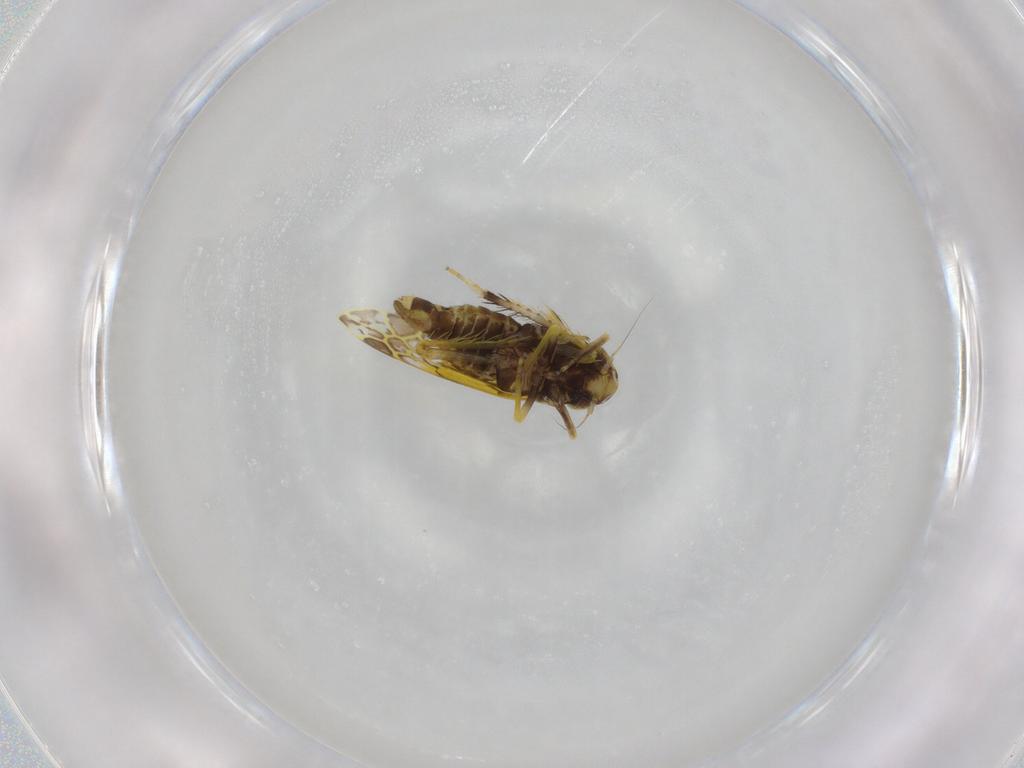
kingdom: Animalia
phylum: Arthropoda
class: Insecta
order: Hemiptera
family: Cicadellidae
